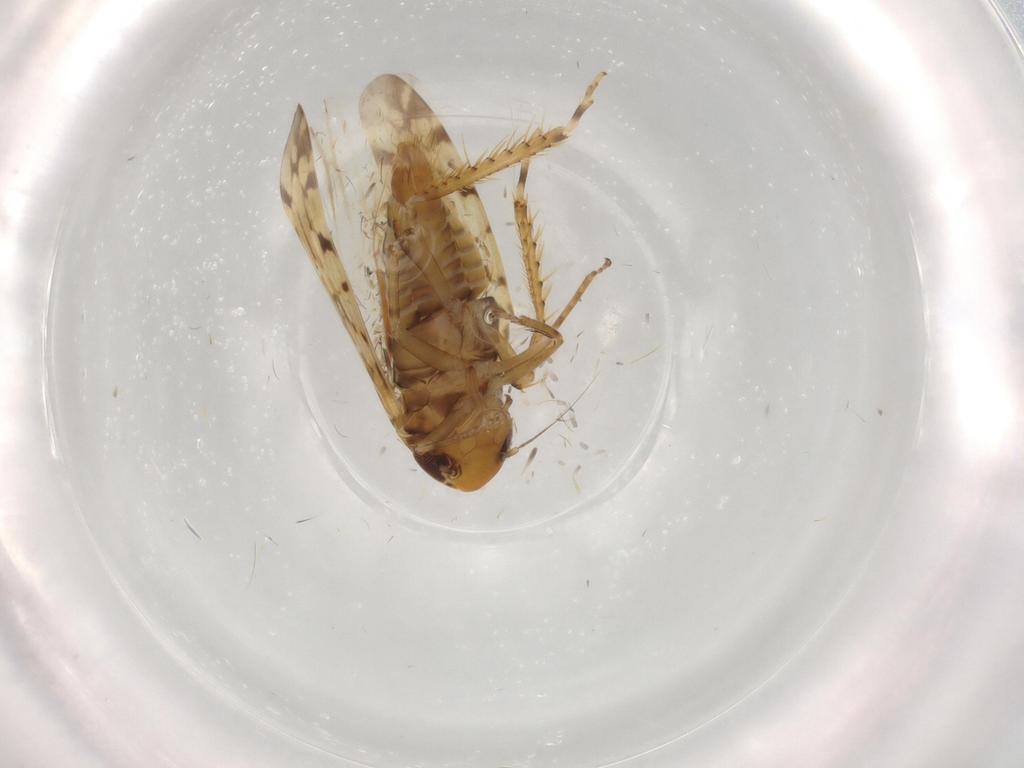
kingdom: Animalia
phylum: Arthropoda
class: Insecta
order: Hemiptera
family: Cicadellidae
